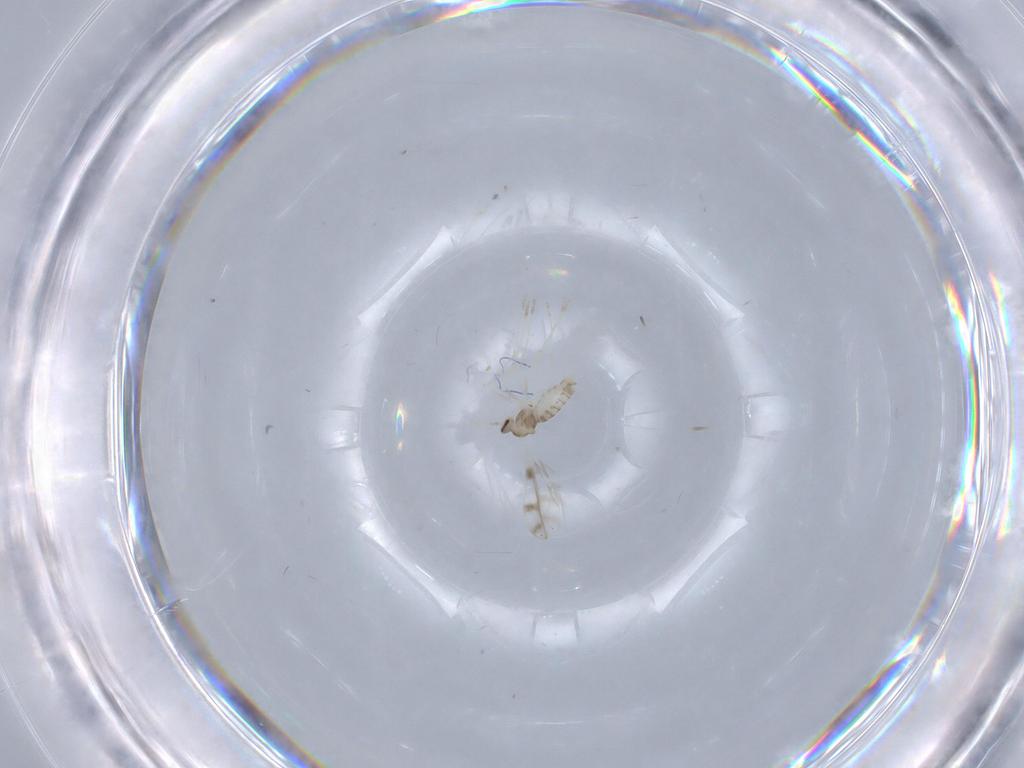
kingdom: Animalia
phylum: Arthropoda
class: Insecta
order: Diptera
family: Cecidomyiidae
